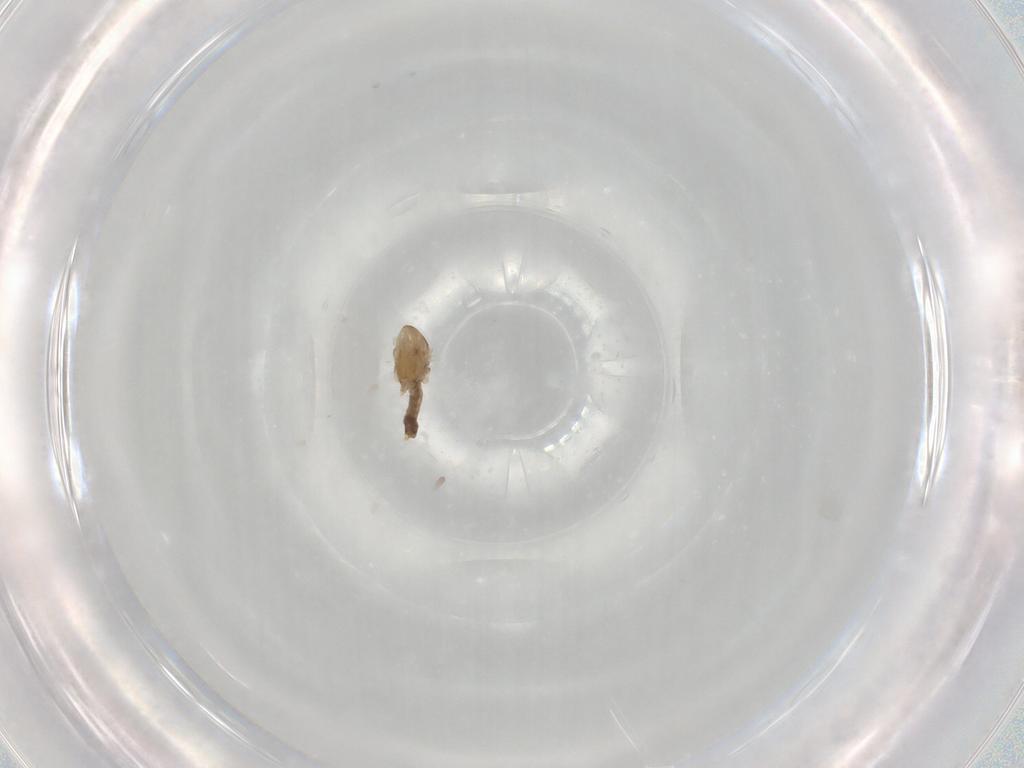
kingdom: Animalia
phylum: Arthropoda
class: Insecta
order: Diptera
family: Chironomidae
